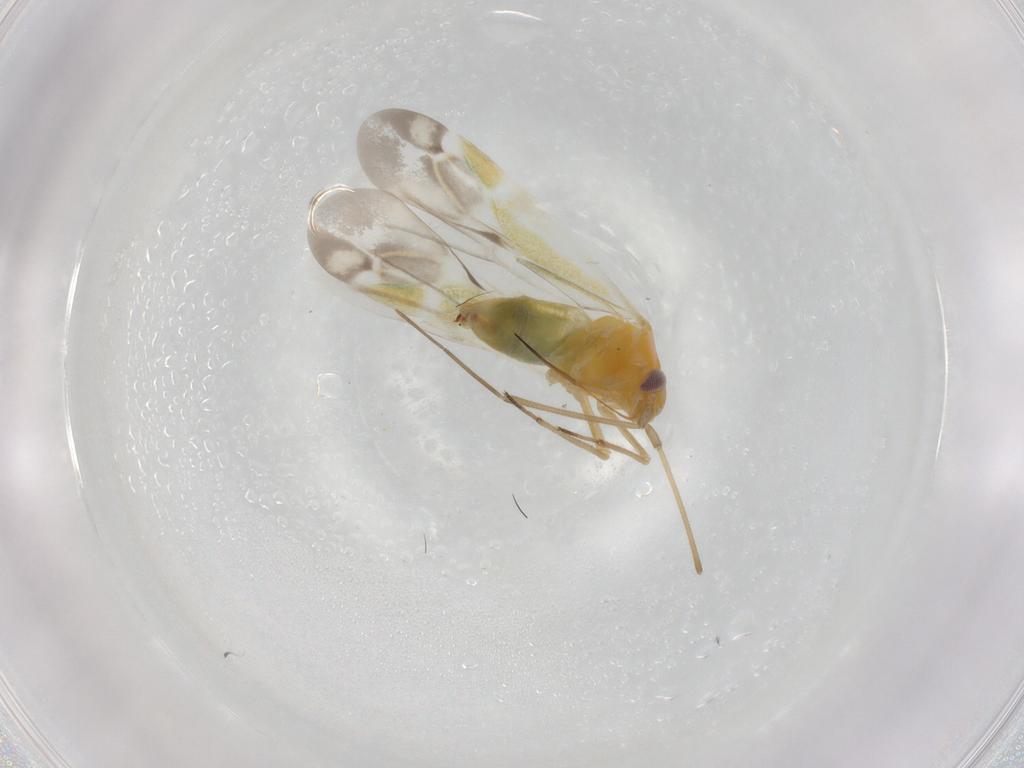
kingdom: Animalia
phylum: Arthropoda
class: Insecta
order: Hemiptera
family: Miridae
